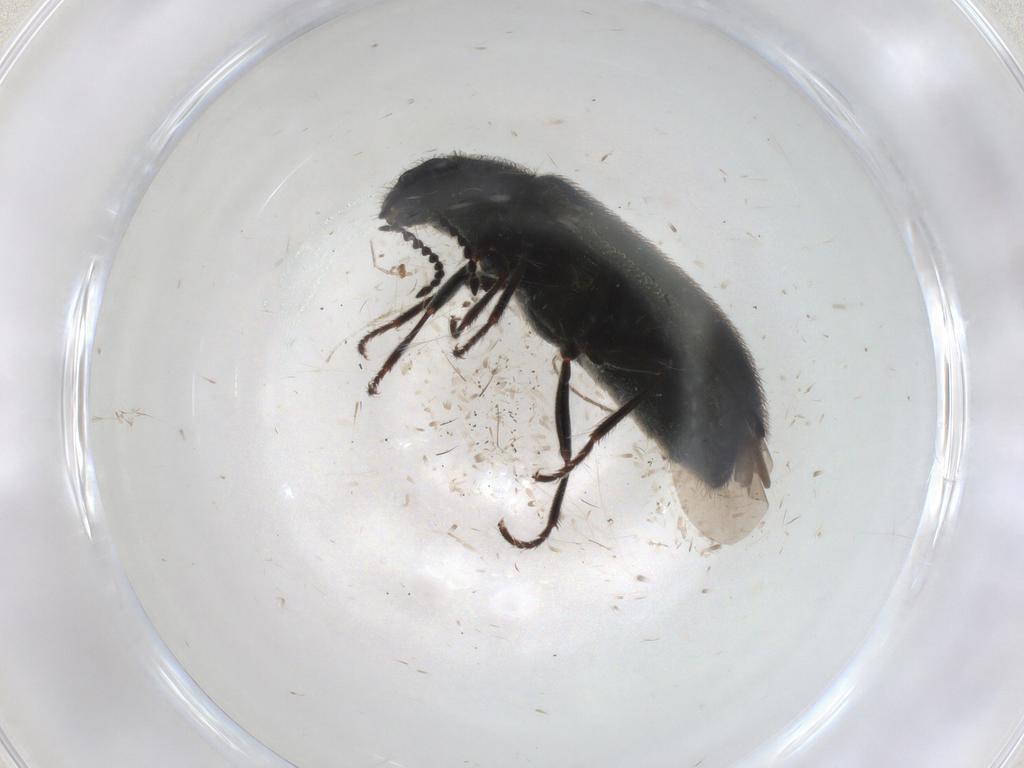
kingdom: Animalia
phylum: Arthropoda
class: Insecta
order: Coleoptera
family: Melyridae
